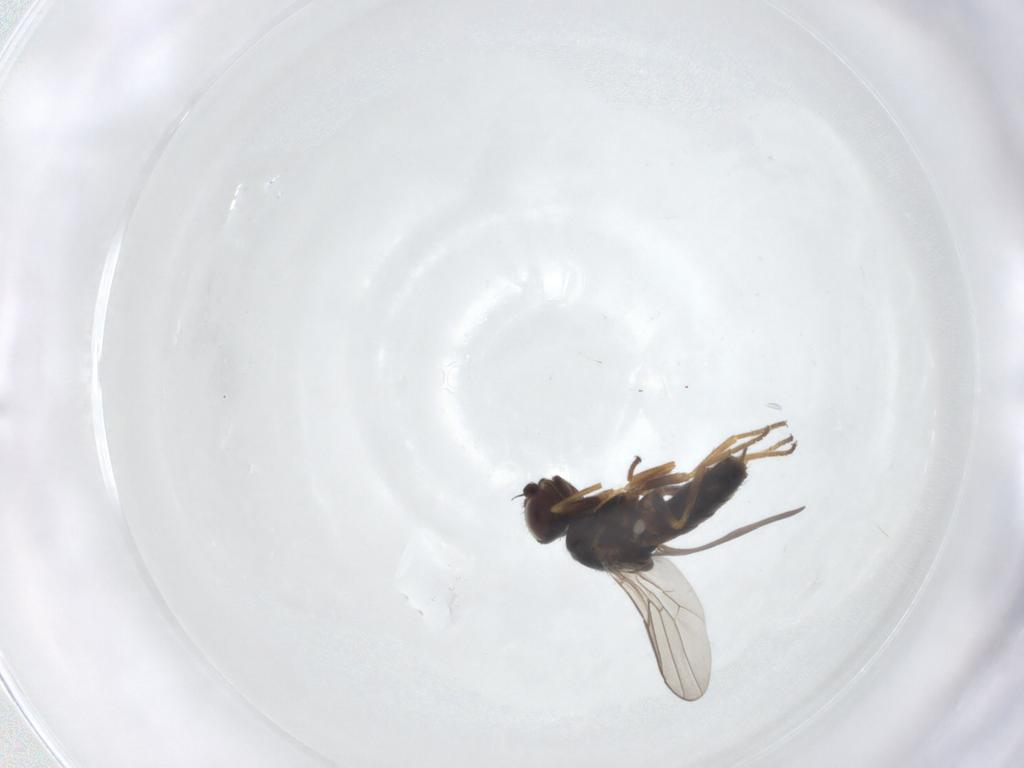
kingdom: Animalia
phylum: Arthropoda
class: Insecta
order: Diptera
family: Chloropidae
